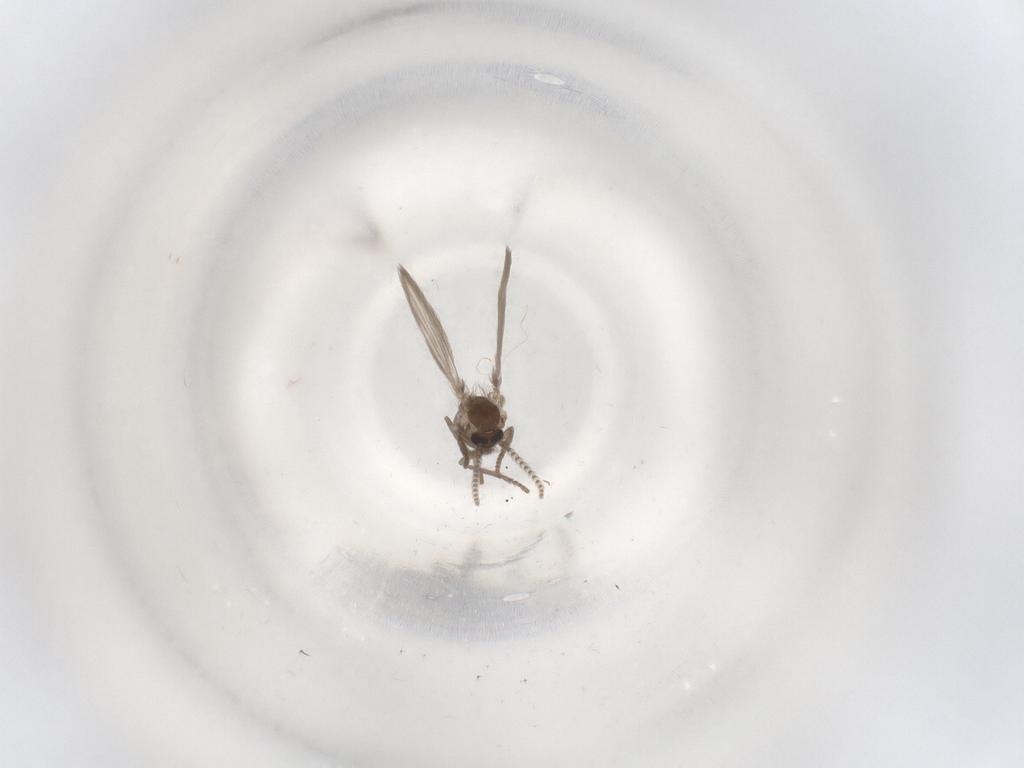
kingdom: Animalia
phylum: Arthropoda
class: Insecta
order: Diptera
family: Psychodidae
